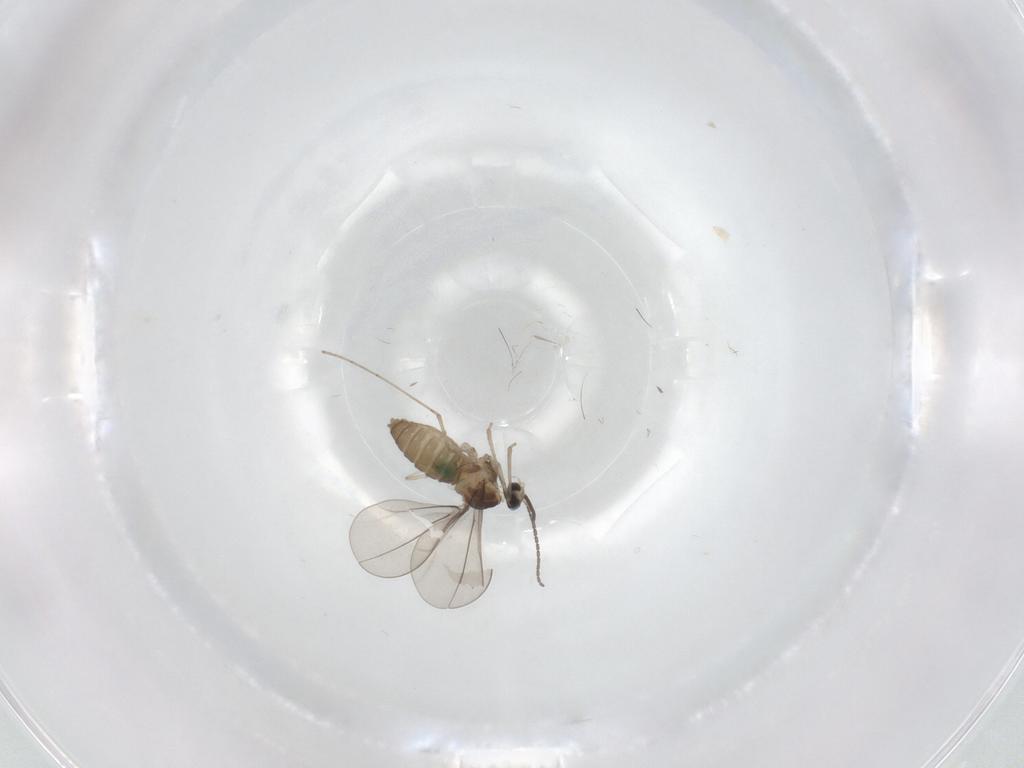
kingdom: Animalia
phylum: Arthropoda
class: Insecta
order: Diptera
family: Cecidomyiidae
